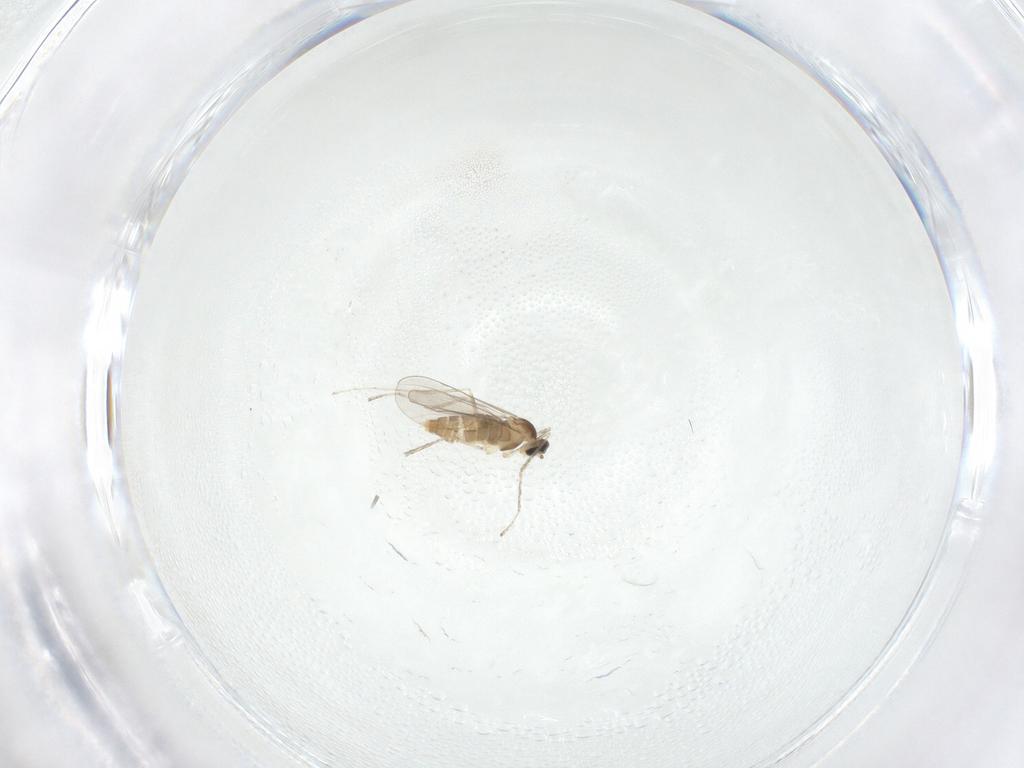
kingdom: Animalia
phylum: Arthropoda
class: Insecta
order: Diptera
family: Cecidomyiidae
